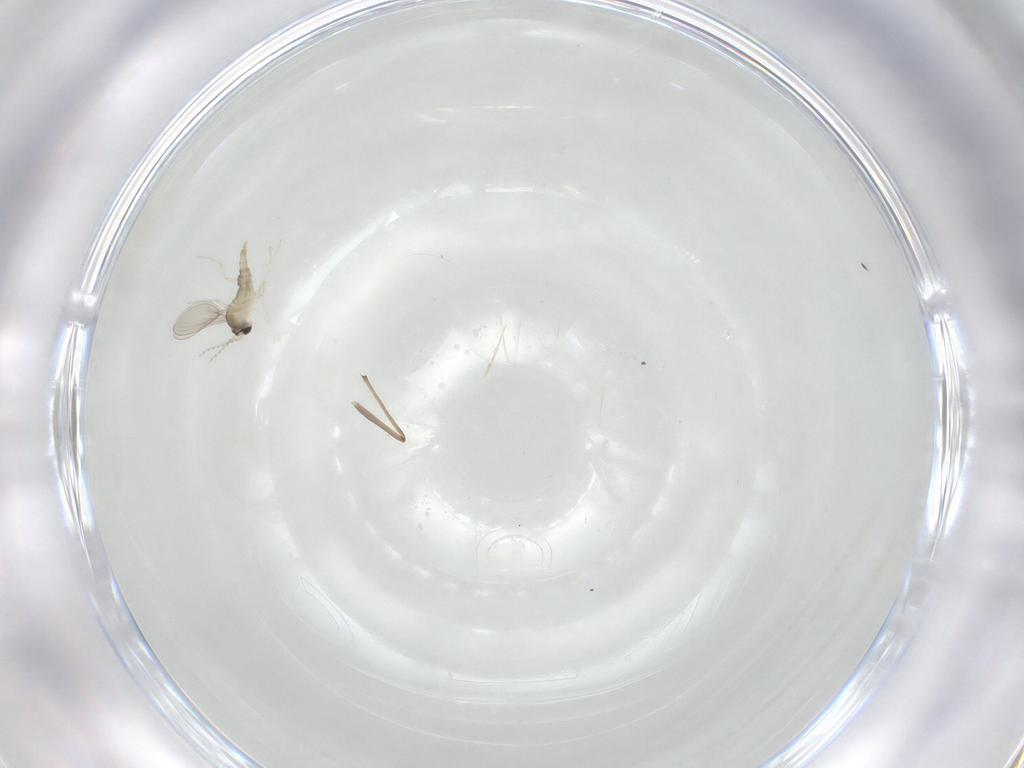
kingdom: Animalia
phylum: Arthropoda
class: Insecta
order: Diptera
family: Cecidomyiidae
